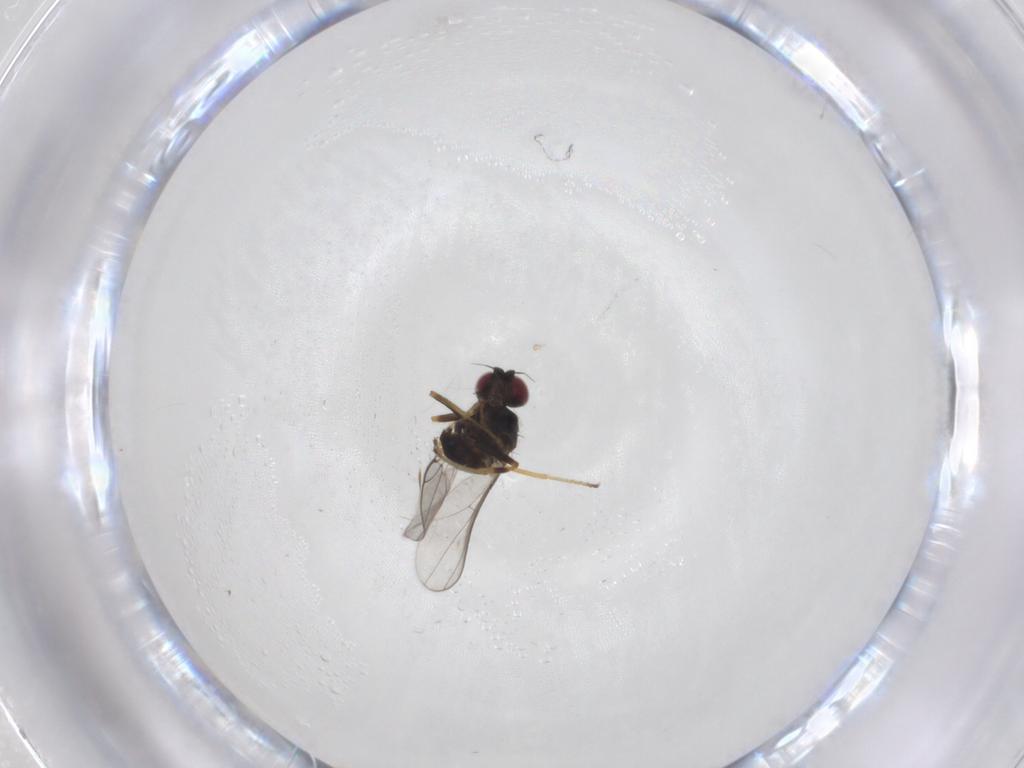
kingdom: Animalia
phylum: Arthropoda
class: Insecta
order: Diptera
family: Chloropidae
